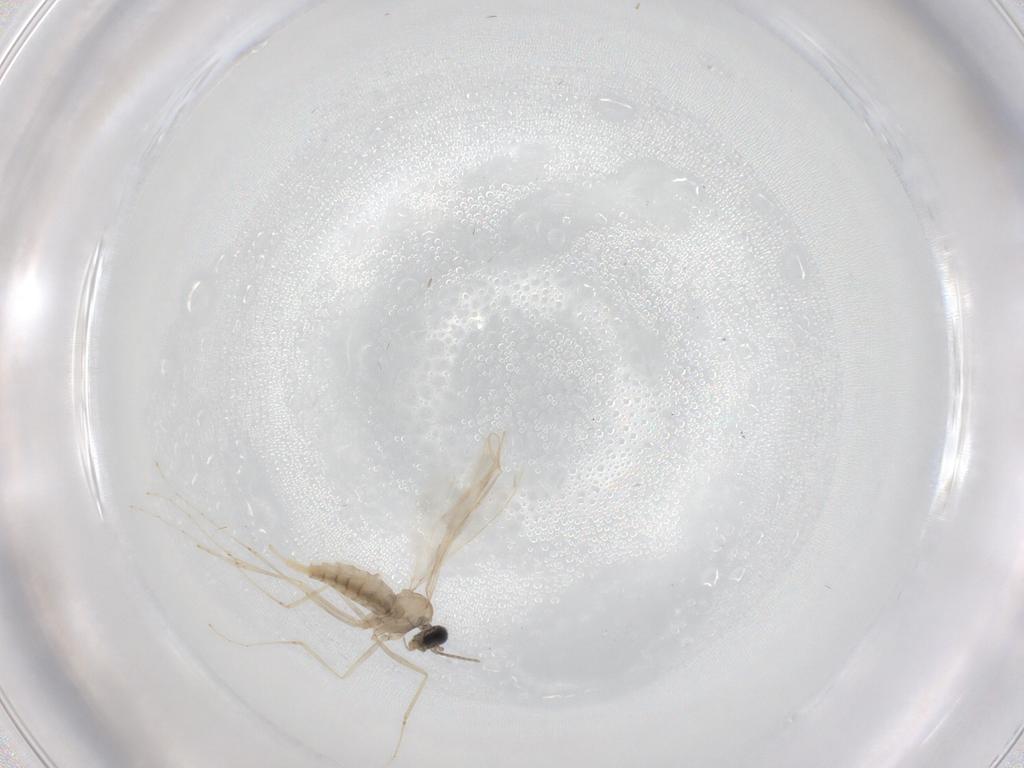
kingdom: Animalia
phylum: Arthropoda
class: Insecta
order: Diptera
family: Cecidomyiidae
